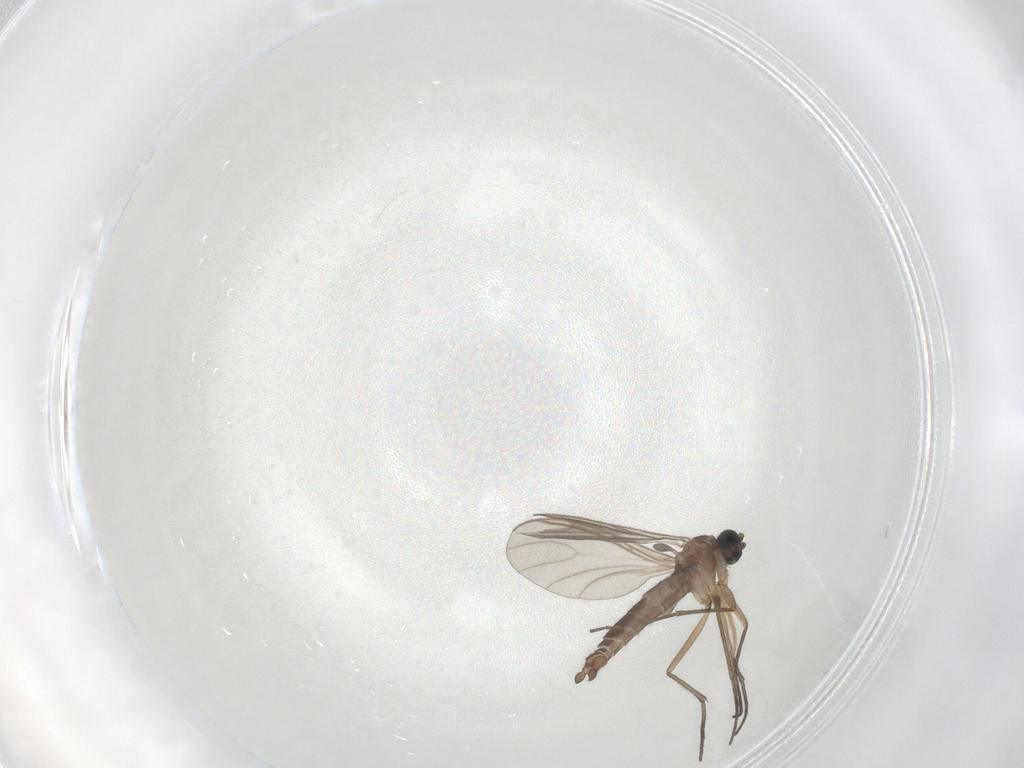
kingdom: Animalia
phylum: Arthropoda
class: Insecta
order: Diptera
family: Sciaridae
